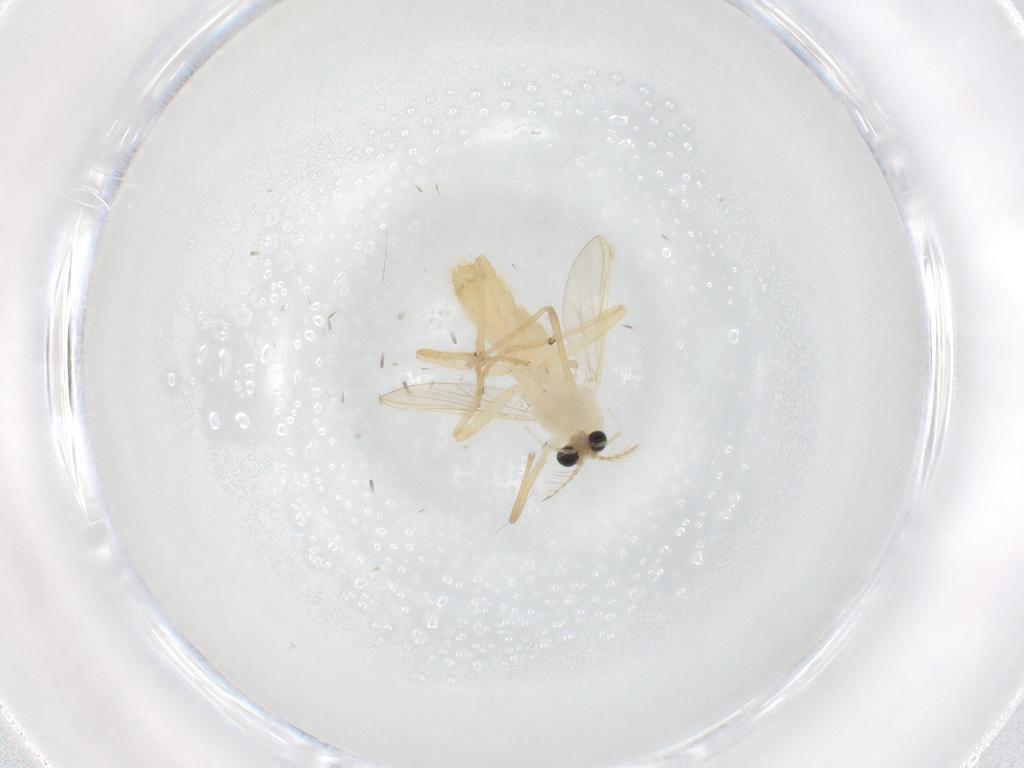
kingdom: Animalia
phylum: Arthropoda
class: Insecta
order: Diptera
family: Chironomidae
